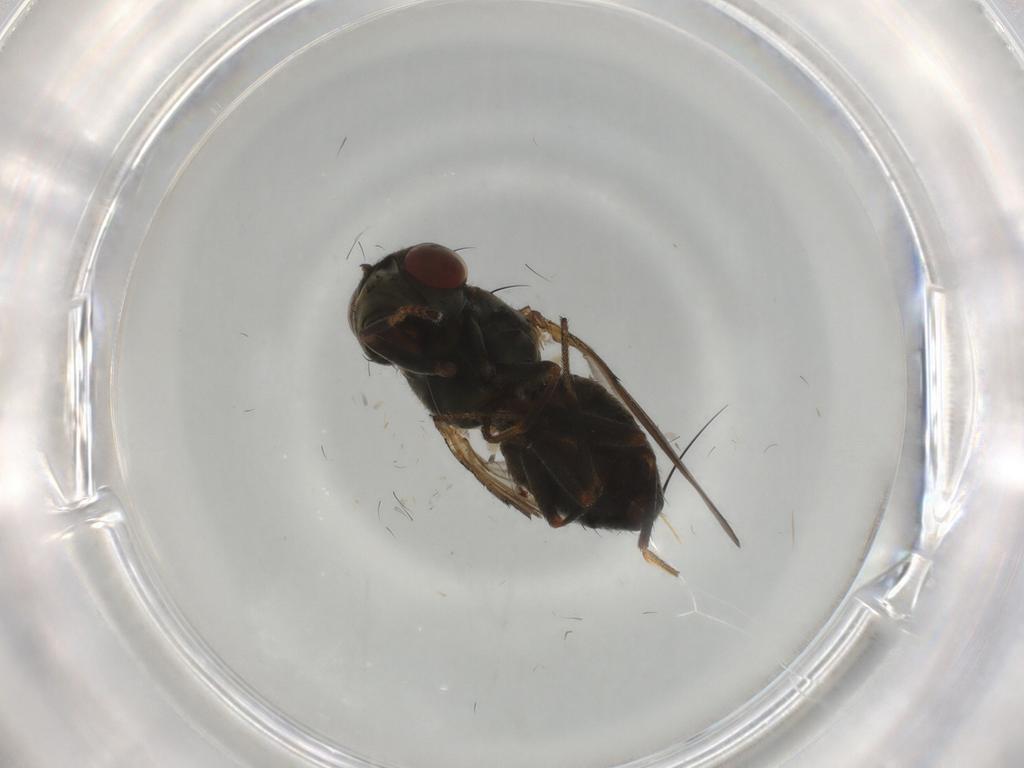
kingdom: Animalia
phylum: Arthropoda
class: Insecta
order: Diptera
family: Ephydridae
